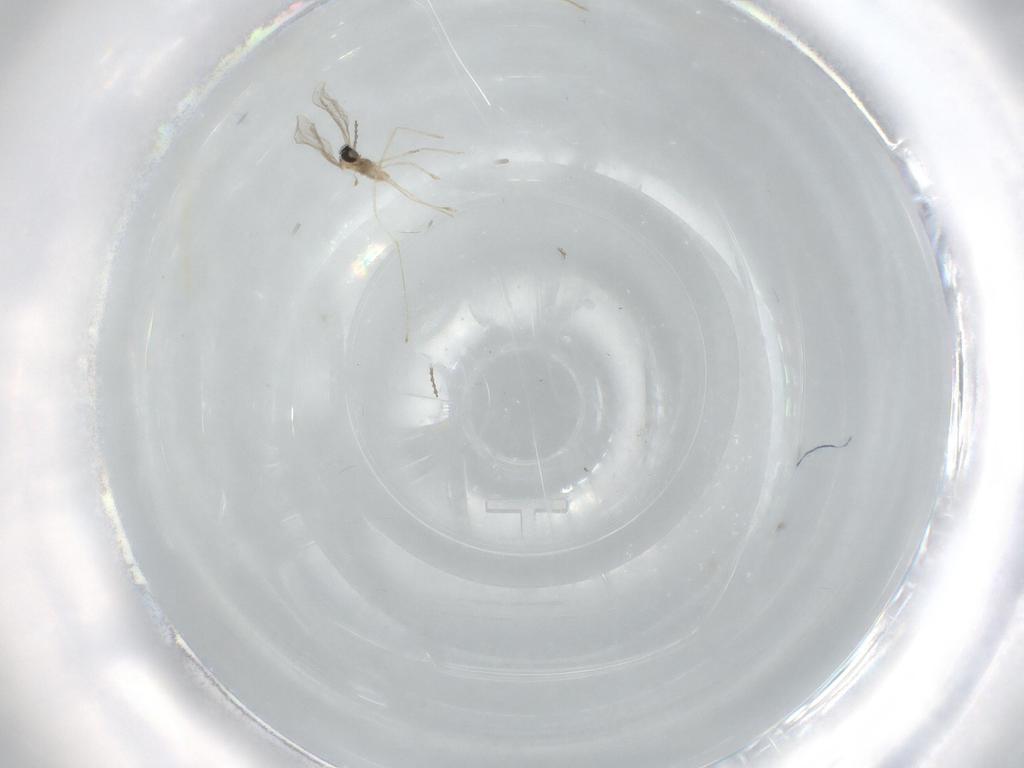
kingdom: Animalia
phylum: Arthropoda
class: Insecta
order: Diptera
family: Cecidomyiidae
